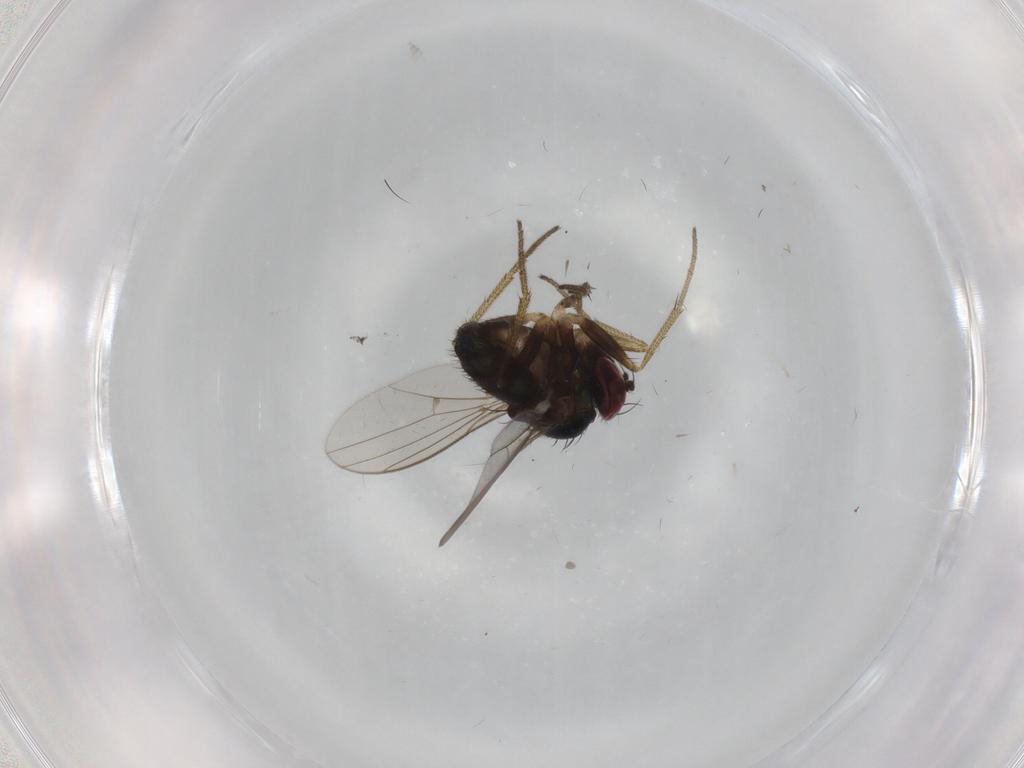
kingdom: Animalia
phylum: Arthropoda
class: Insecta
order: Diptera
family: Dolichopodidae
